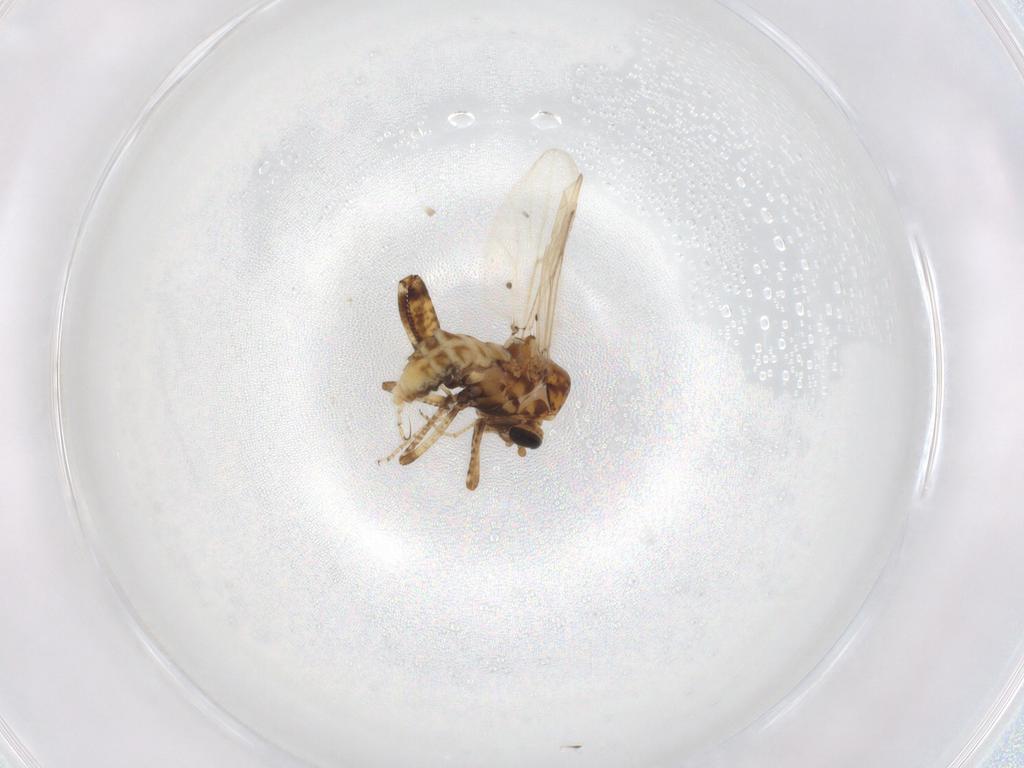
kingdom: Animalia
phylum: Arthropoda
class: Insecta
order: Diptera
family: Ceratopogonidae
